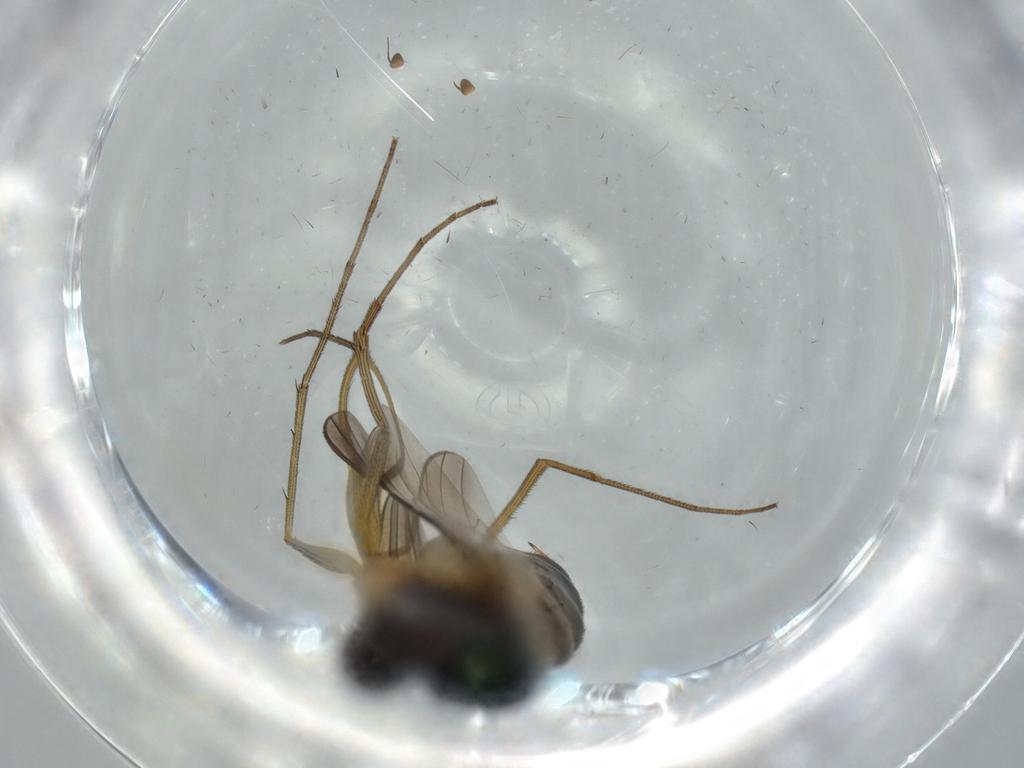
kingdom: Animalia
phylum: Arthropoda
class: Insecta
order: Diptera
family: Dolichopodidae
